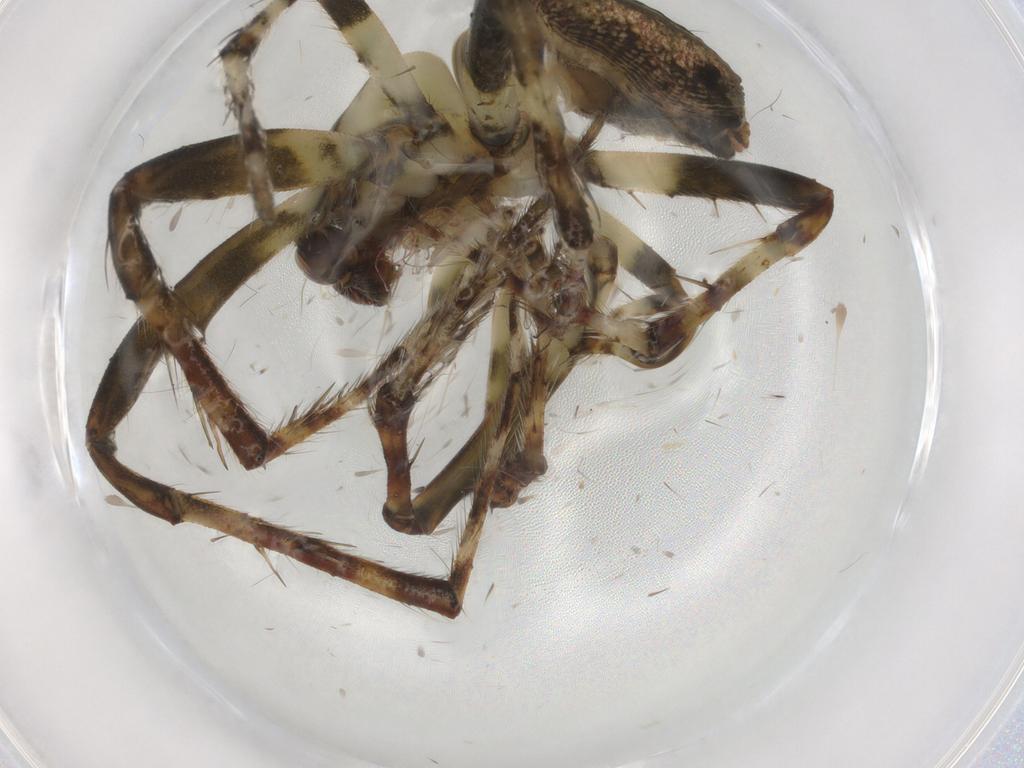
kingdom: Animalia
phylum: Arthropoda
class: Arachnida
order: Araneae
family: Araneidae
